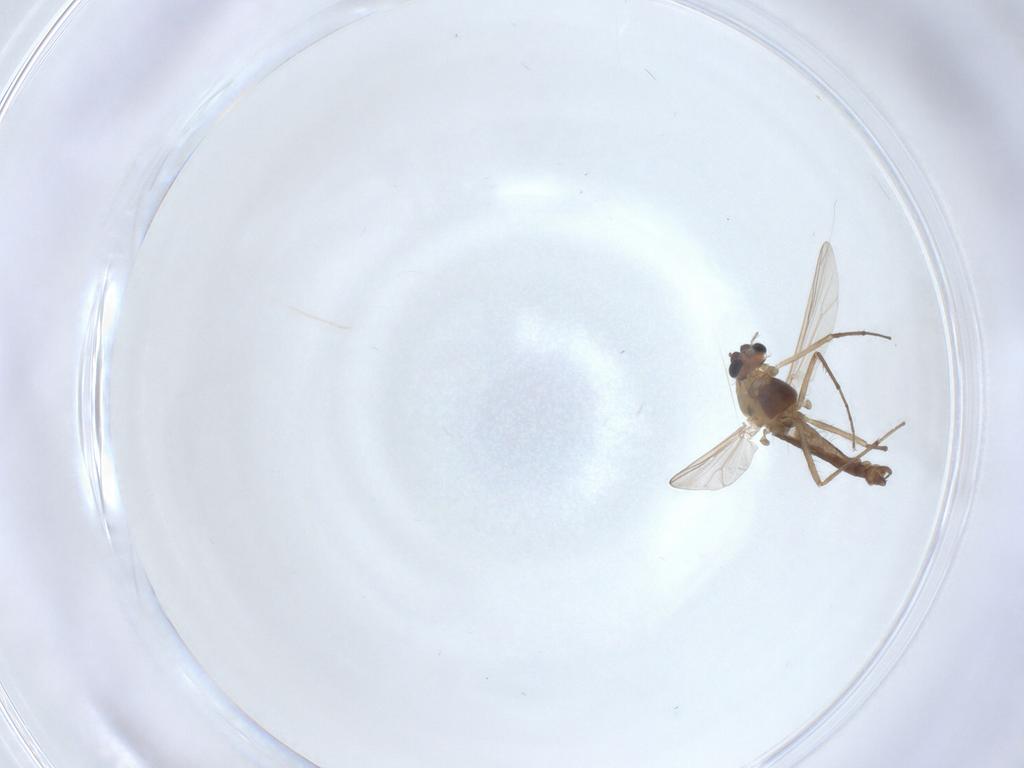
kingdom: Animalia
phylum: Arthropoda
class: Insecta
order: Diptera
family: Chironomidae
